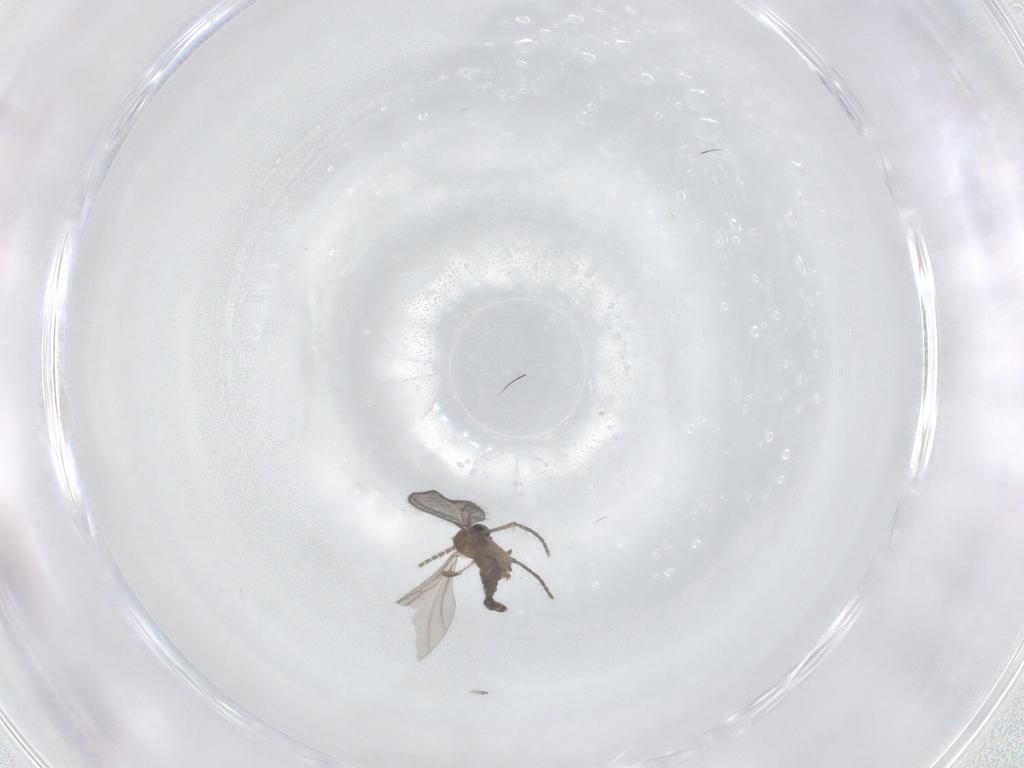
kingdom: Animalia
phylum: Arthropoda
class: Insecta
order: Diptera
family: Sciaridae
